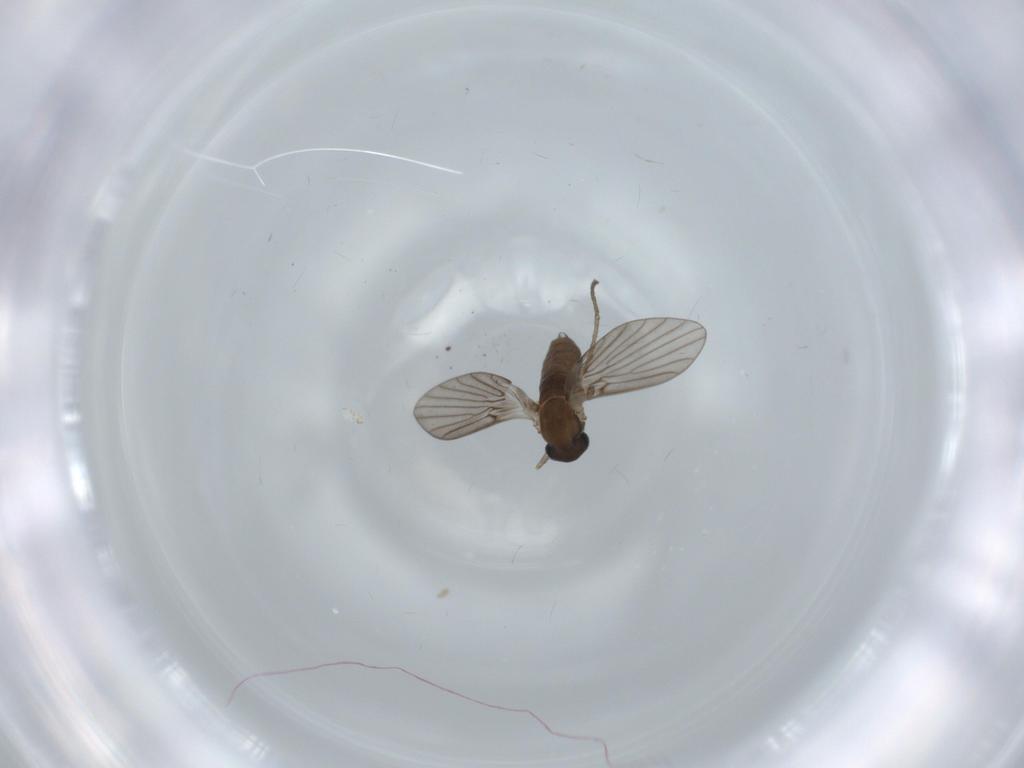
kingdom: Animalia
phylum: Arthropoda
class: Insecta
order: Diptera
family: Psychodidae
